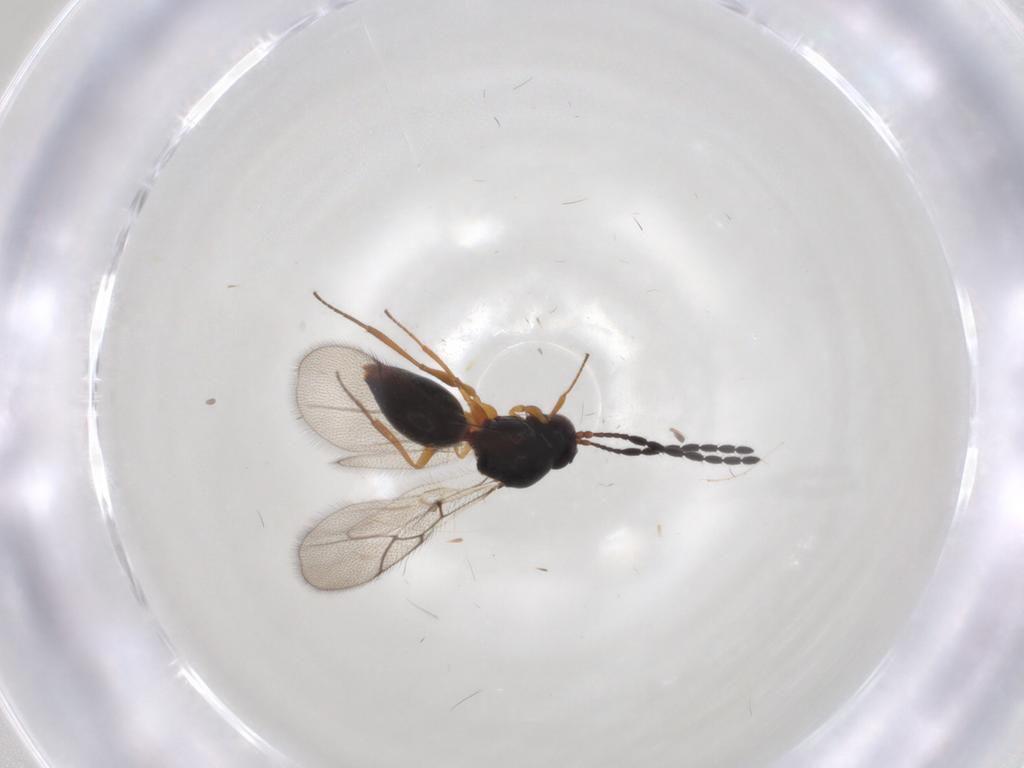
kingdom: Animalia
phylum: Arthropoda
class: Insecta
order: Hymenoptera
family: Figitidae
